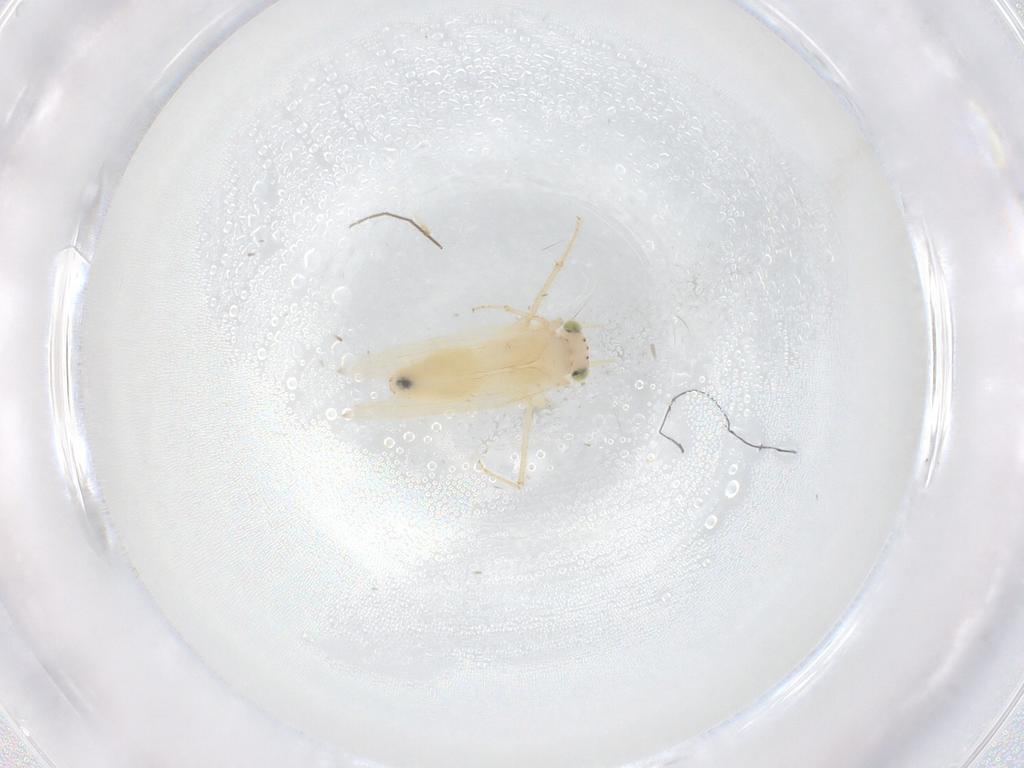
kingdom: Animalia
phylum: Arthropoda
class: Insecta
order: Psocodea
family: Lepidopsocidae
